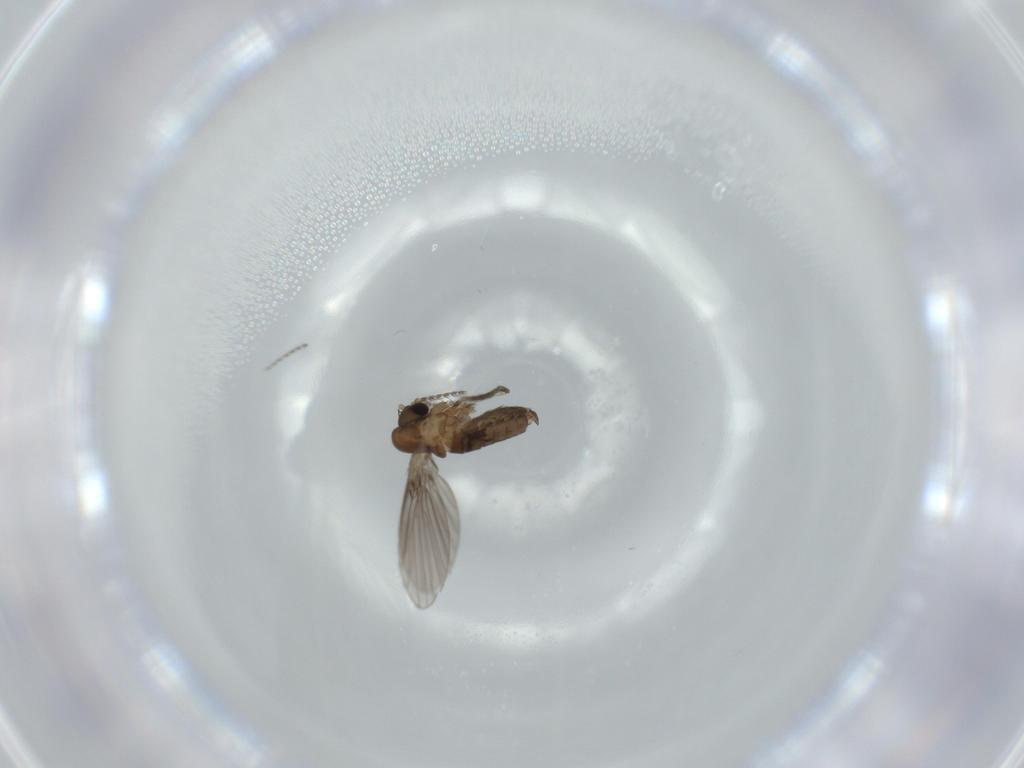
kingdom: Animalia
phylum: Arthropoda
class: Insecta
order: Diptera
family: Psychodidae
